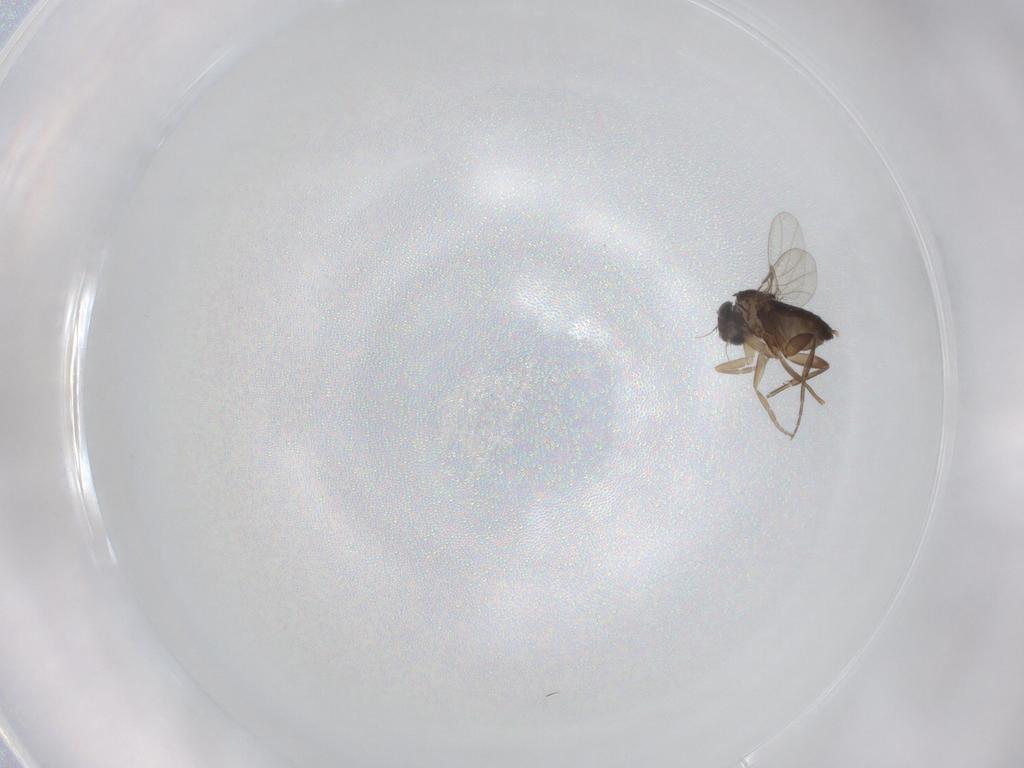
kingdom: Animalia
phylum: Arthropoda
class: Insecta
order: Diptera
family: Phoridae
